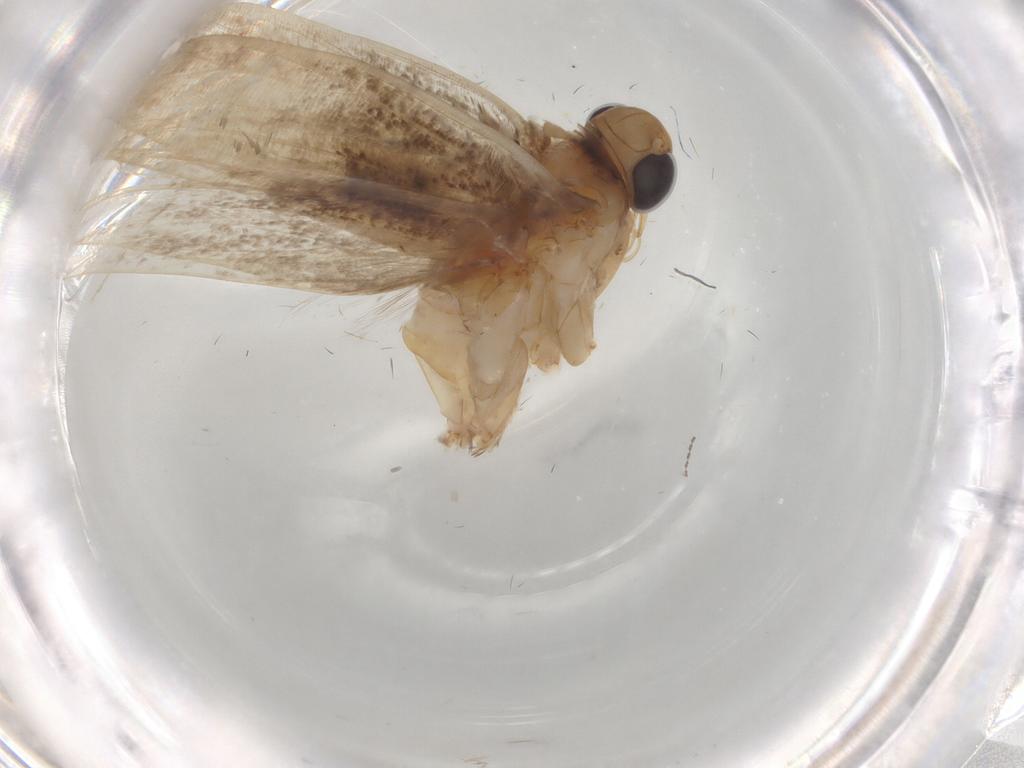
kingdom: Animalia
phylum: Arthropoda
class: Insecta
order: Lepidoptera
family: Yponomeutidae
